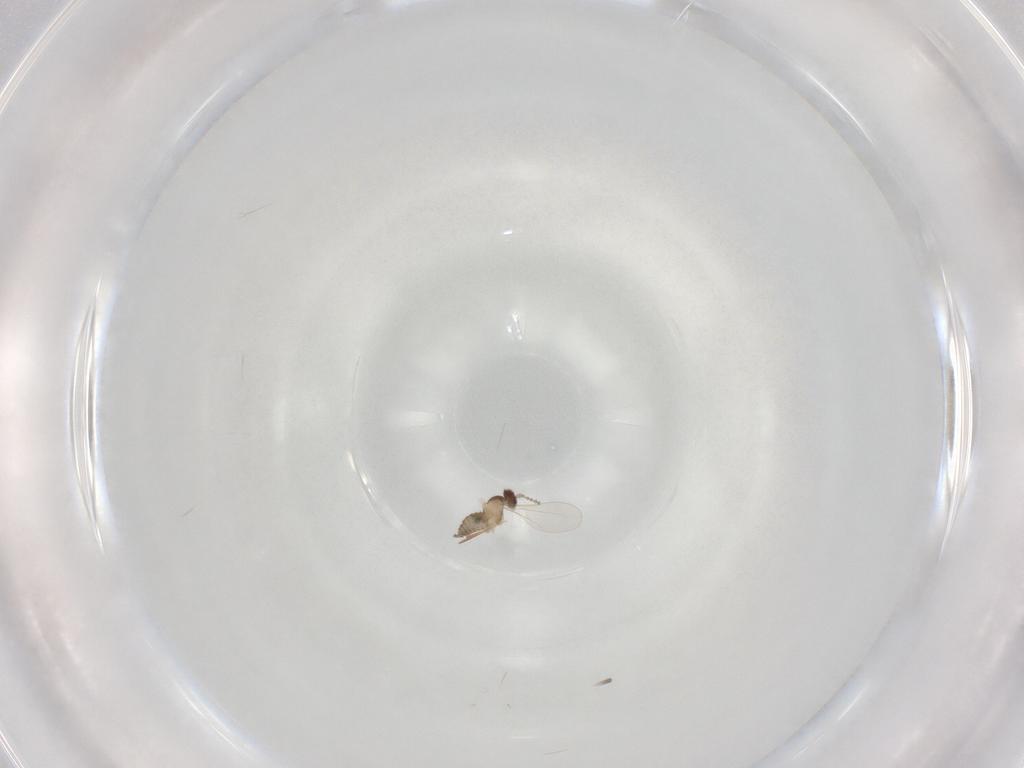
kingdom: Animalia
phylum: Arthropoda
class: Insecta
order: Diptera
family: Cecidomyiidae
